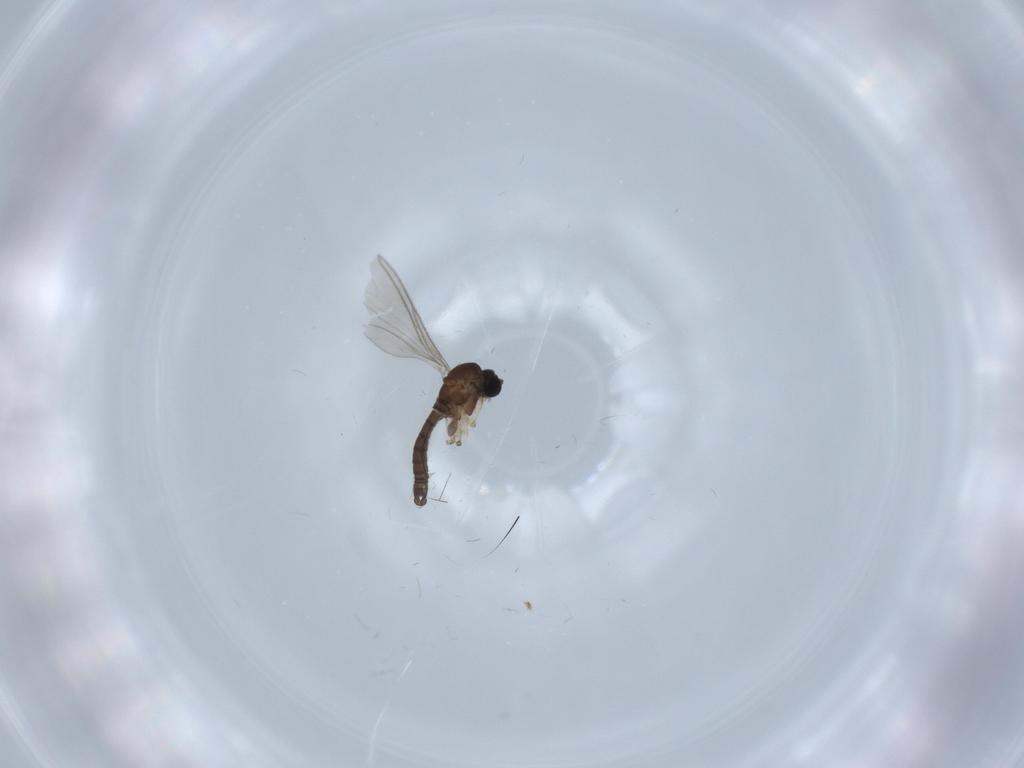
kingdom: Animalia
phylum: Arthropoda
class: Insecta
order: Diptera
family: Sciaridae
